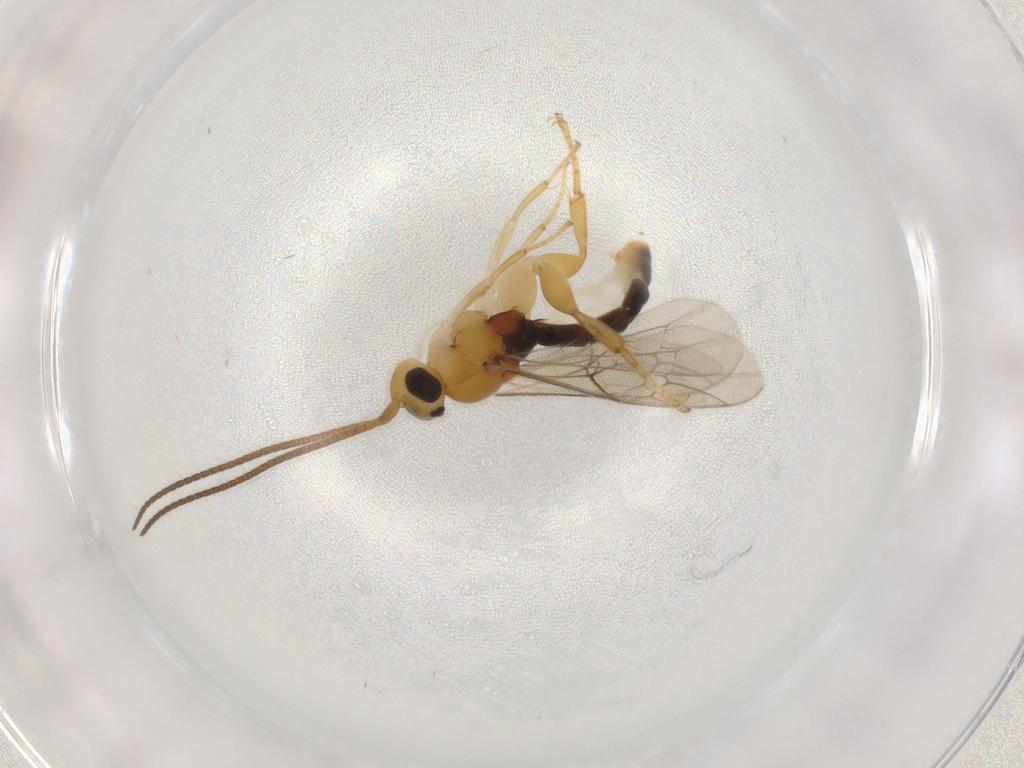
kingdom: Animalia
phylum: Arthropoda
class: Insecta
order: Hymenoptera
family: Ichneumonidae
